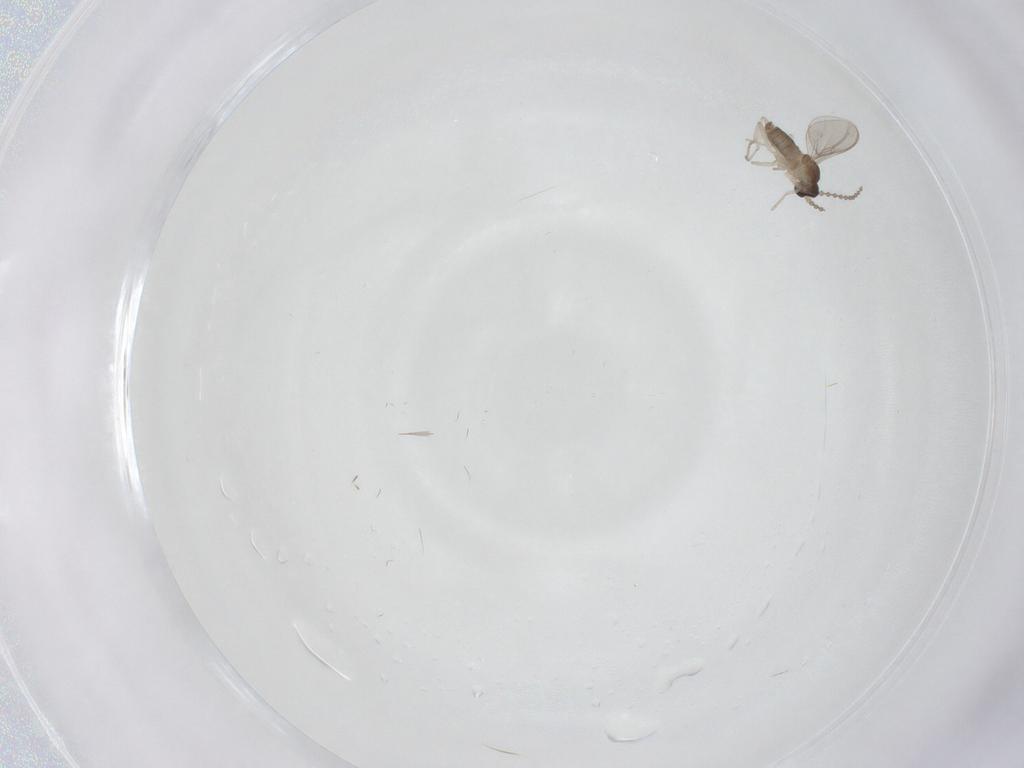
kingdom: Animalia
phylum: Arthropoda
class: Insecta
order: Diptera
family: Cecidomyiidae
